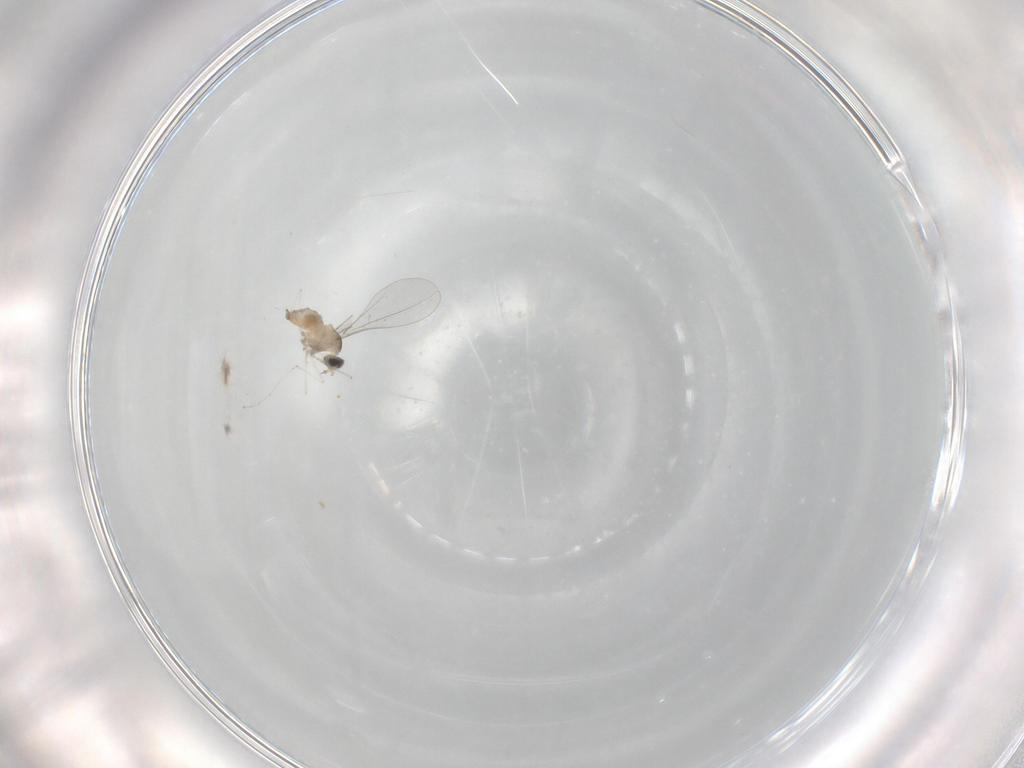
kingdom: Animalia
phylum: Arthropoda
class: Insecta
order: Diptera
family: Cecidomyiidae
